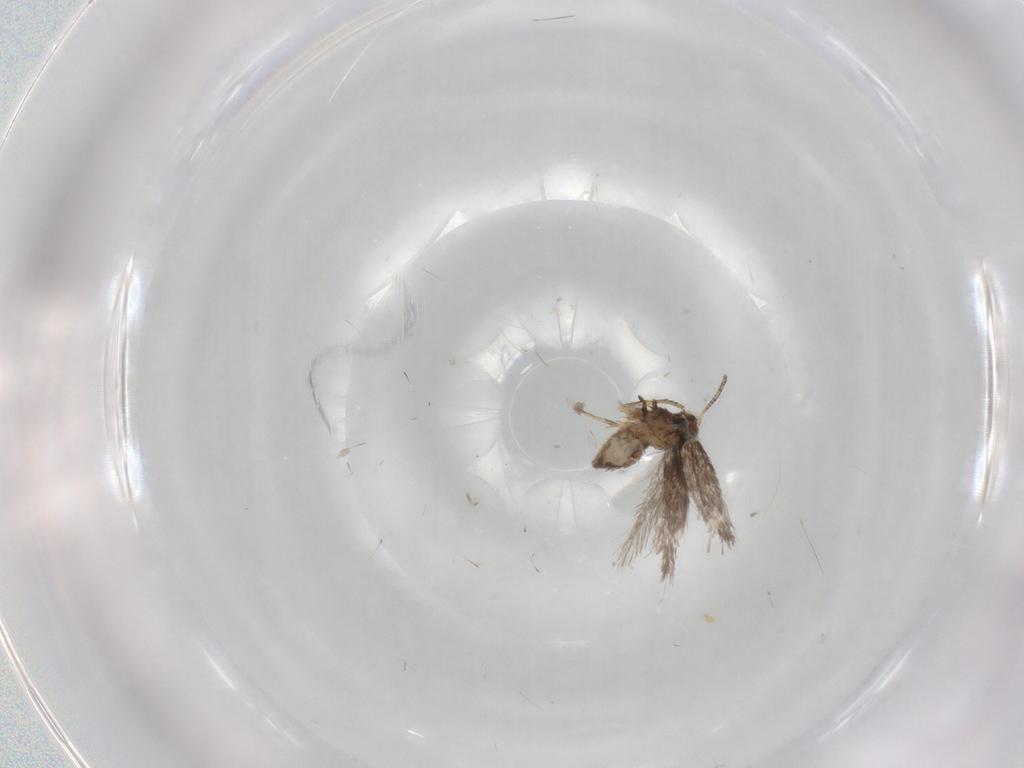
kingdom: Animalia
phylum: Arthropoda
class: Insecta
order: Lepidoptera
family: Nepticulidae
